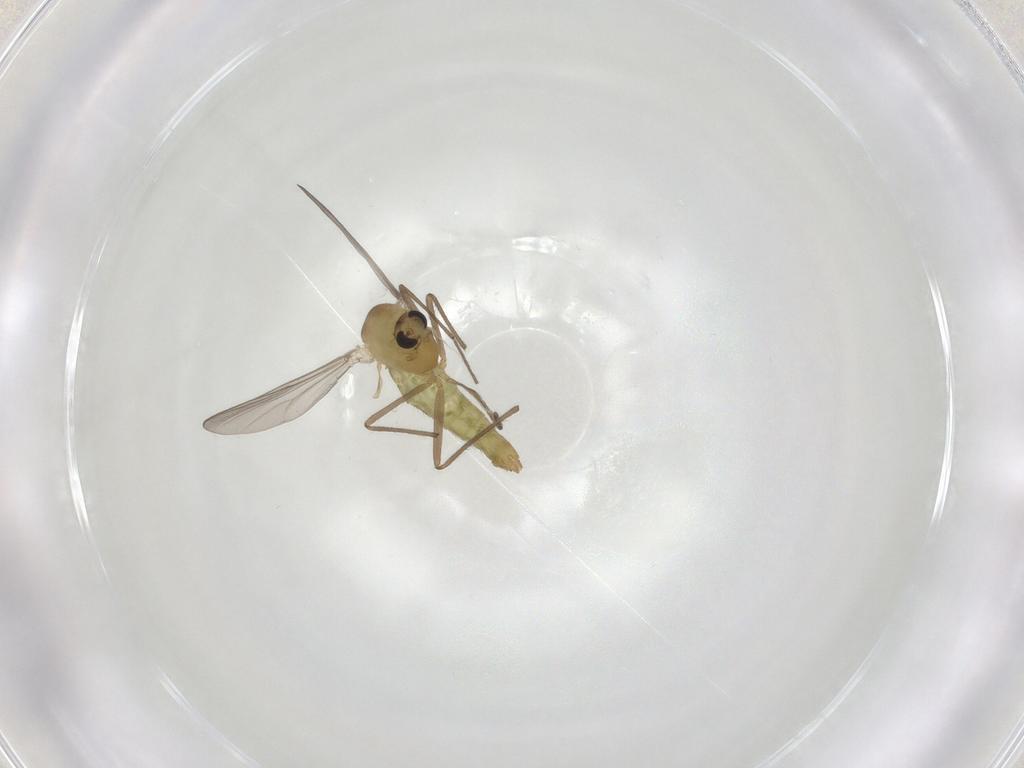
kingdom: Animalia
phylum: Arthropoda
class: Insecta
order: Diptera
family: Chironomidae
